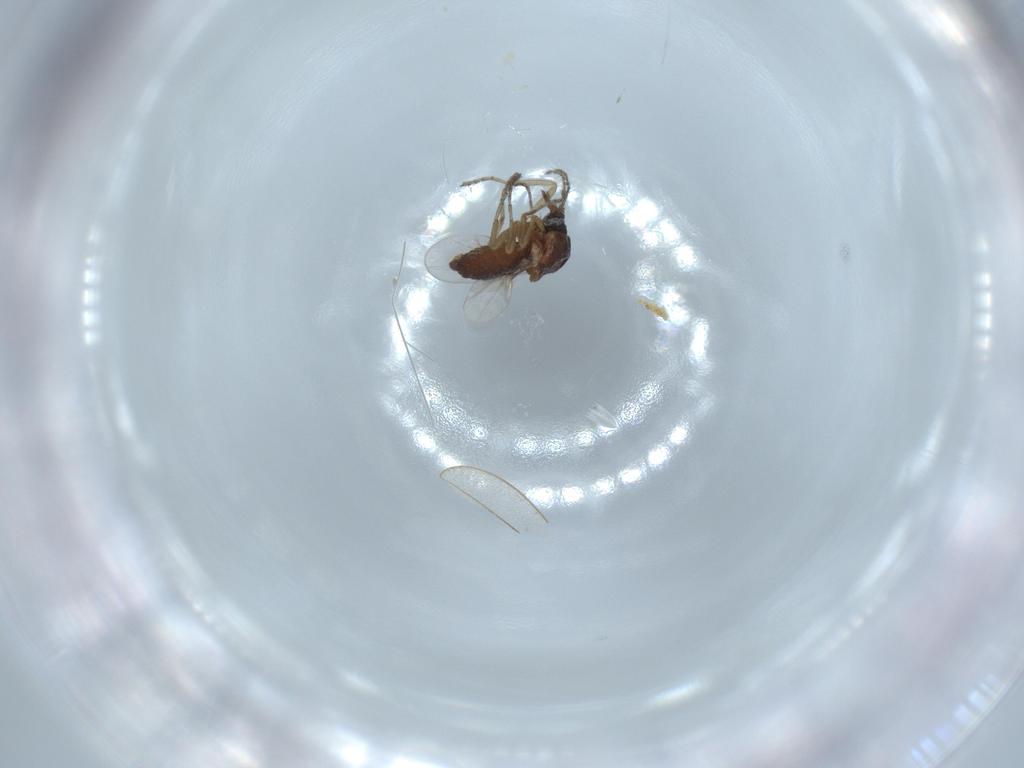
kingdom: Animalia
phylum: Arthropoda
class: Insecta
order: Diptera
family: Ceratopogonidae
